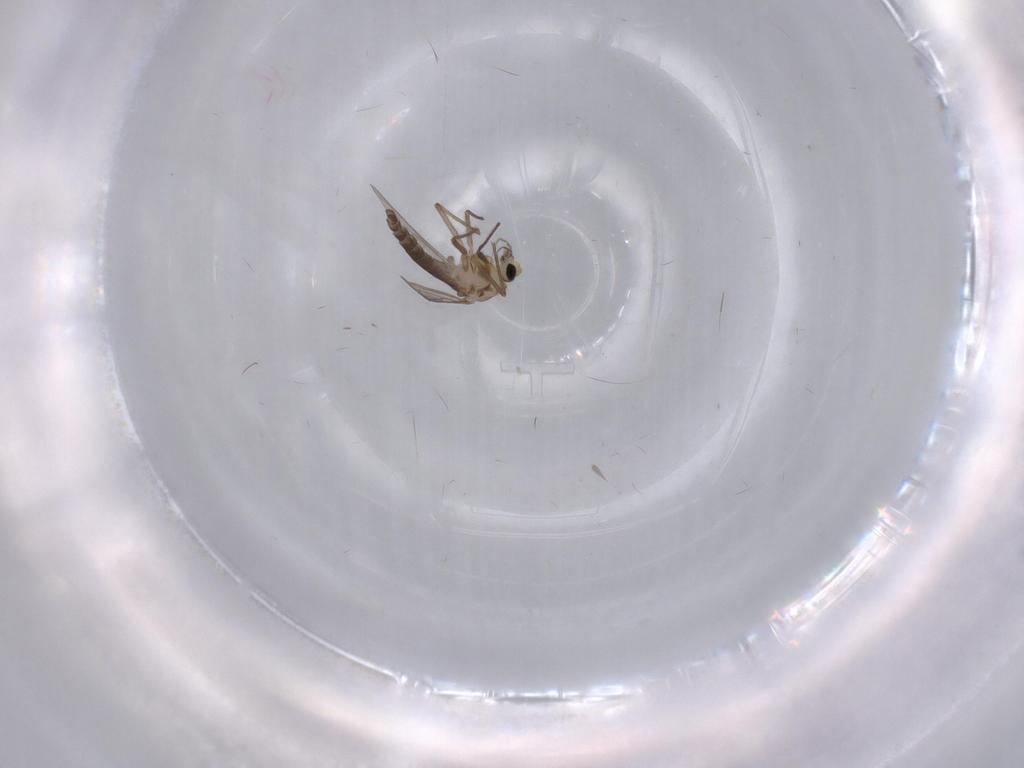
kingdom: Animalia
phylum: Arthropoda
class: Insecta
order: Diptera
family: Chironomidae
